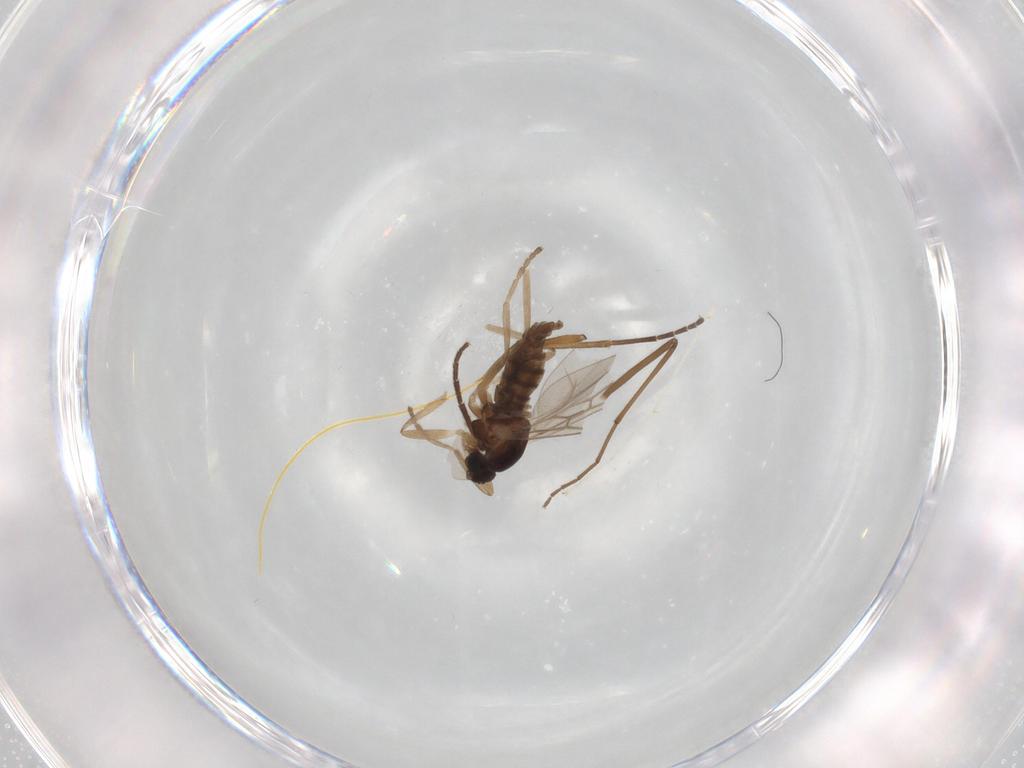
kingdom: Animalia
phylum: Arthropoda
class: Insecta
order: Diptera
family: Cecidomyiidae
